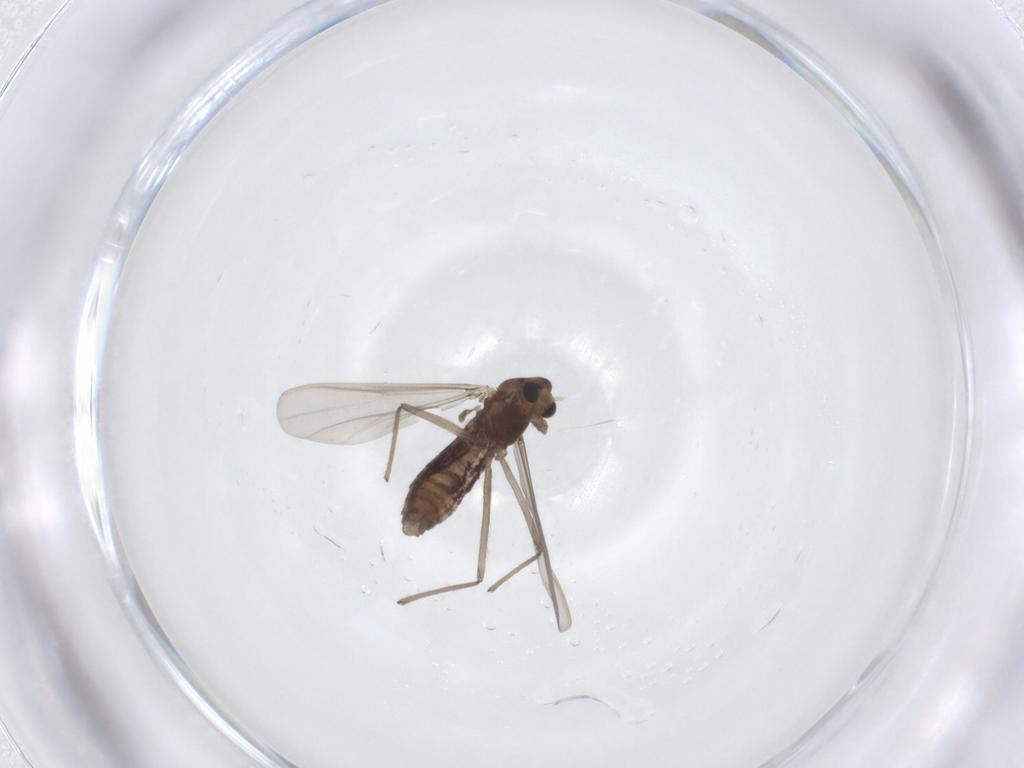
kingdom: Animalia
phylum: Arthropoda
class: Insecta
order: Diptera
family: Chironomidae
